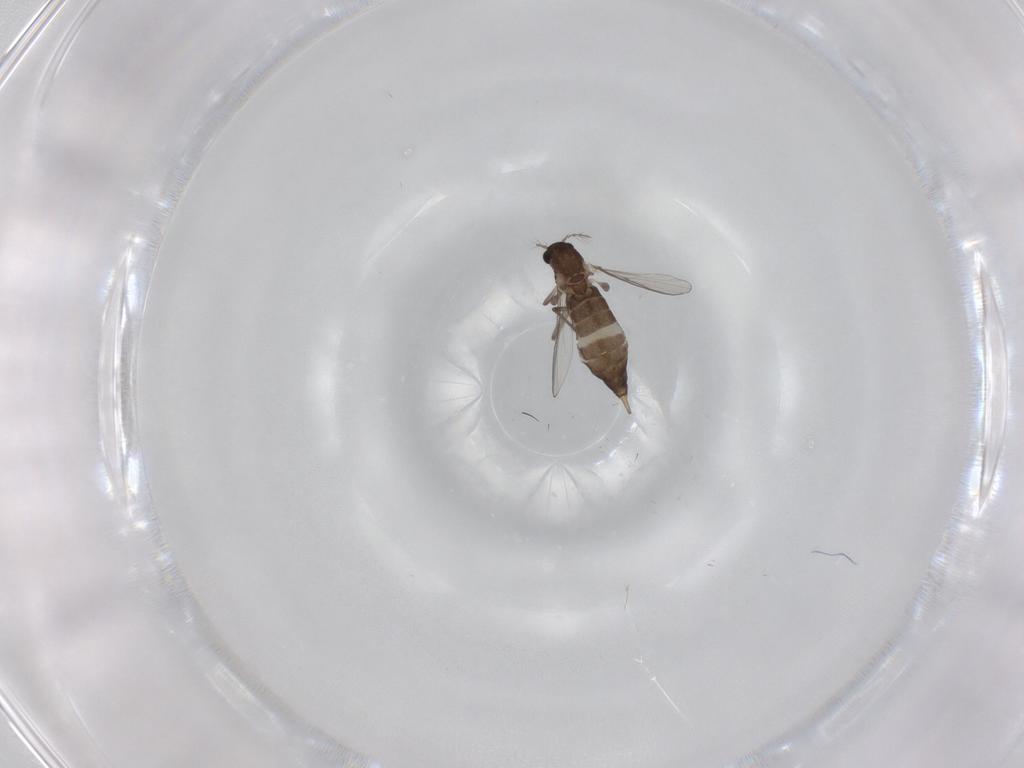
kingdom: Animalia
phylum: Arthropoda
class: Insecta
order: Diptera
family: Chironomidae
